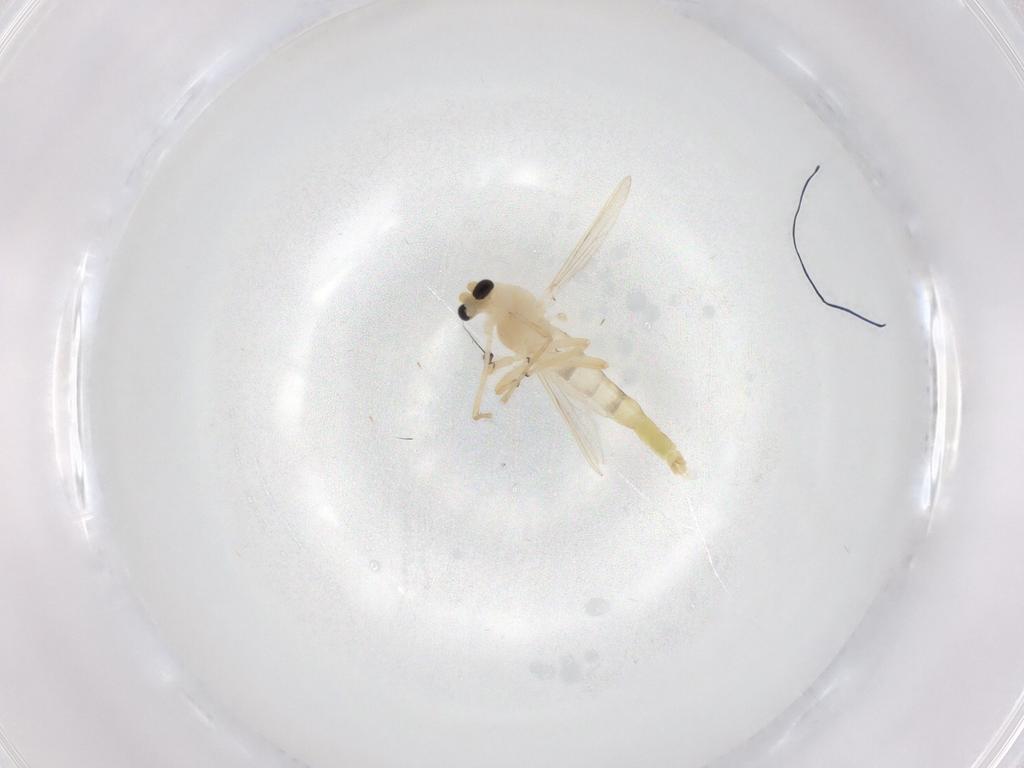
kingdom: Animalia
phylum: Arthropoda
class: Insecta
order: Diptera
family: Chironomidae
